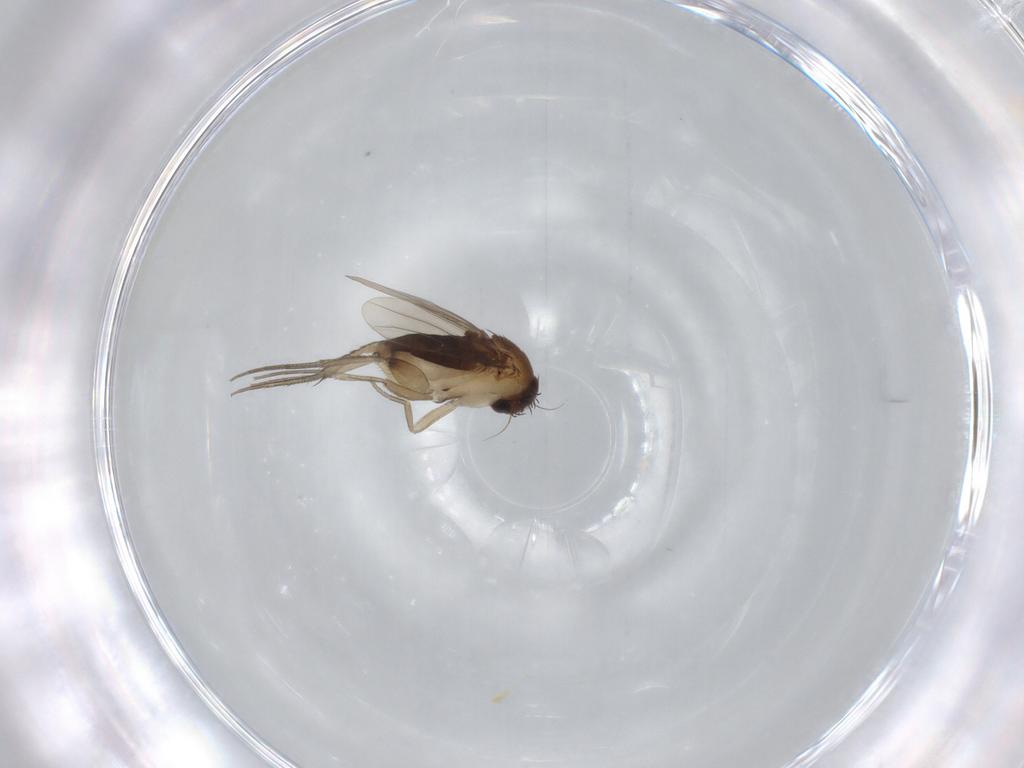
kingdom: Animalia
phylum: Arthropoda
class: Insecta
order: Diptera
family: Phoridae
